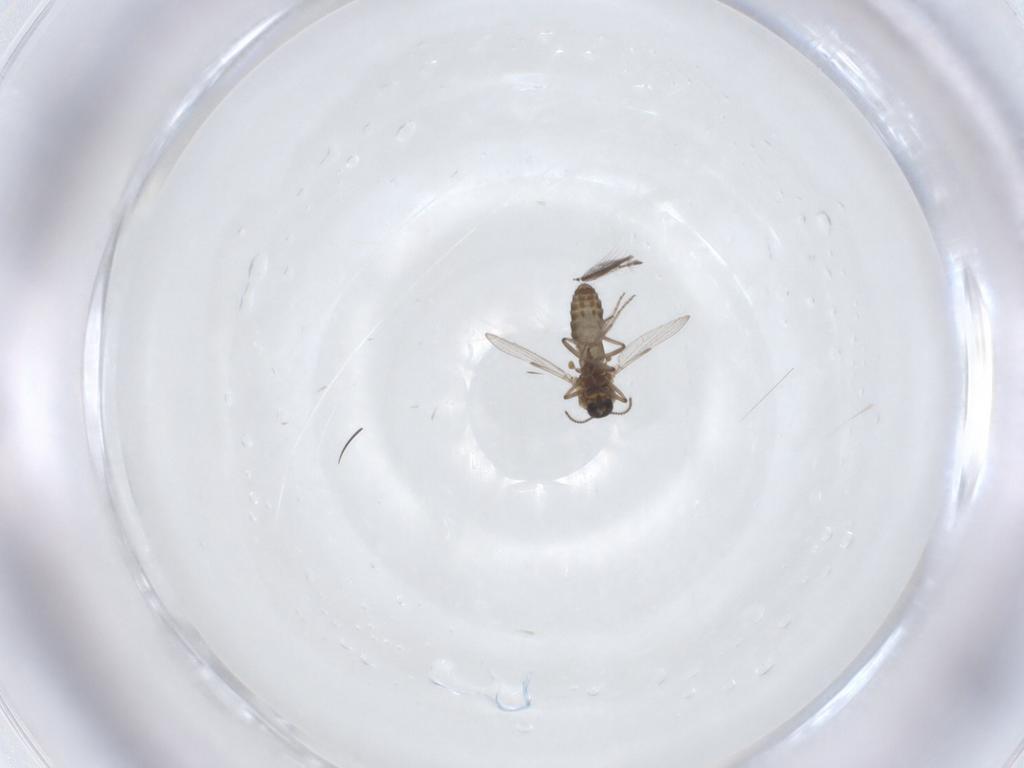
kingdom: Animalia
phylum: Arthropoda
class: Insecta
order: Diptera
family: Ceratopogonidae
